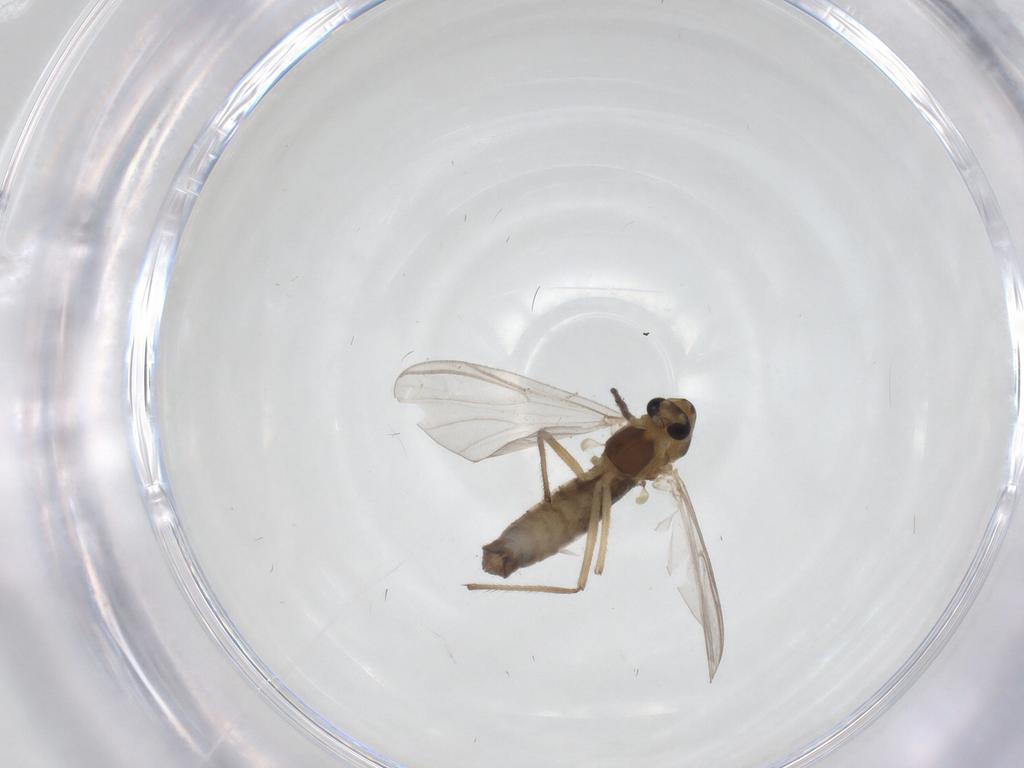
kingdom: Animalia
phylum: Arthropoda
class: Insecta
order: Diptera
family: Chironomidae
